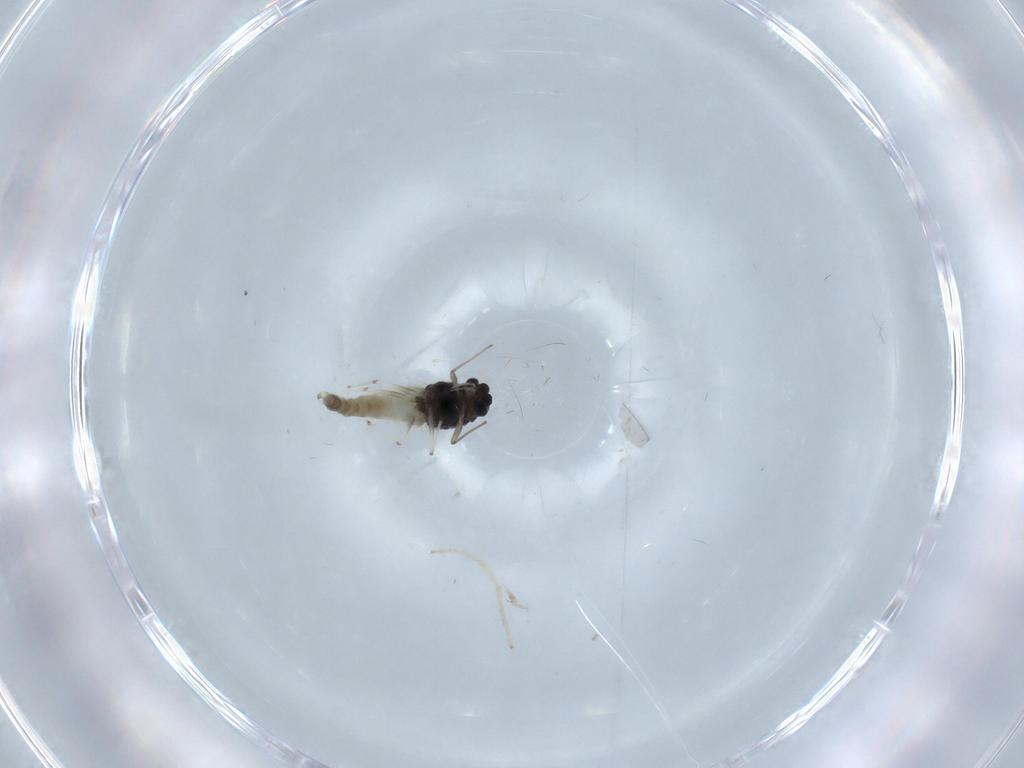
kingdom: Animalia
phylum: Arthropoda
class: Insecta
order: Diptera
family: Chironomidae
